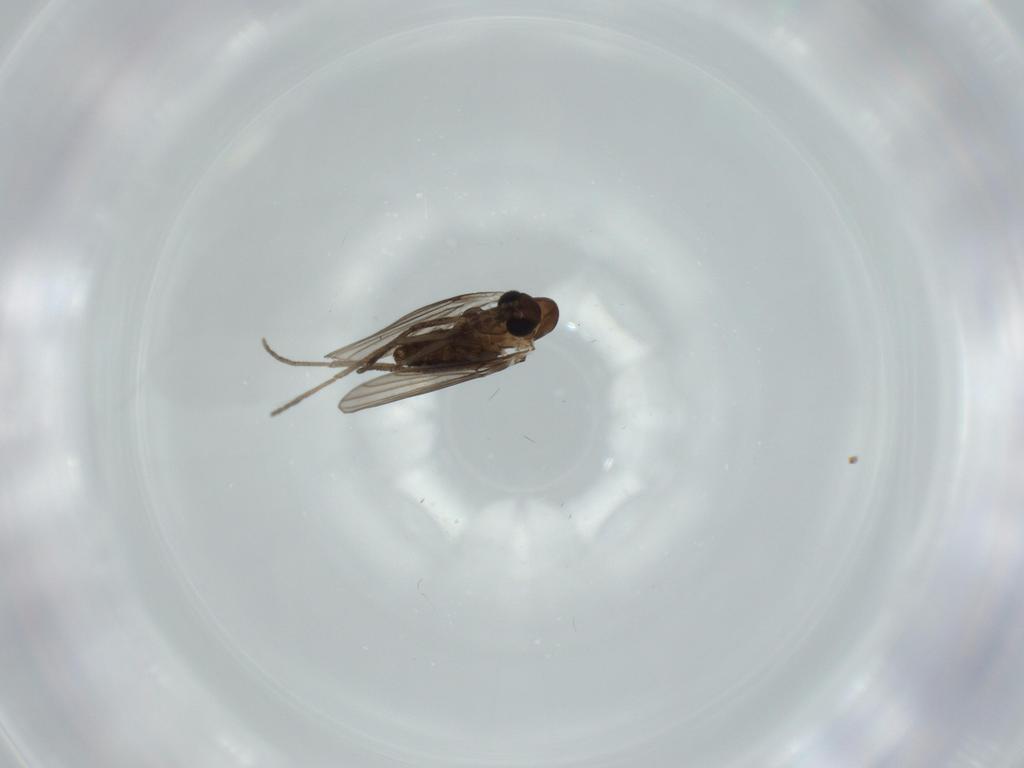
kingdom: Animalia
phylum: Arthropoda
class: Insecta
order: Diptera
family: Psychodidae
